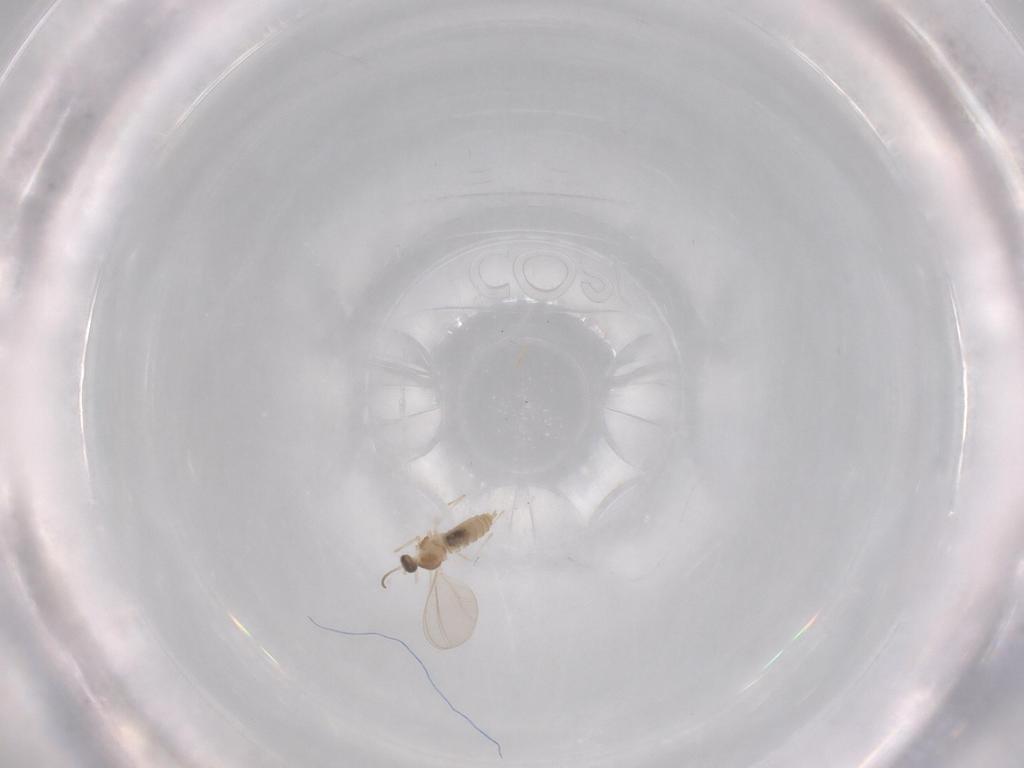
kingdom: Animalia
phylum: Arthropoda
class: Insecta
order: Diptera
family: Cecidomyiidae
